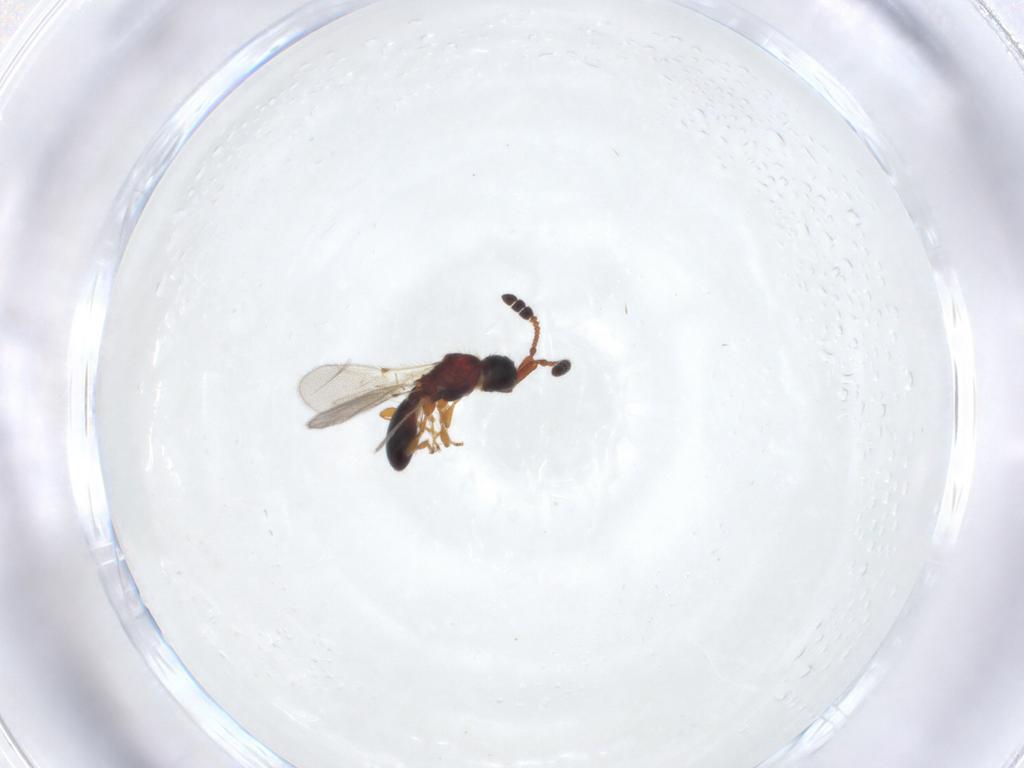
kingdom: Animalia
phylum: Arthropoda
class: Insecta
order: Hymenoptera
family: Diapriidae
